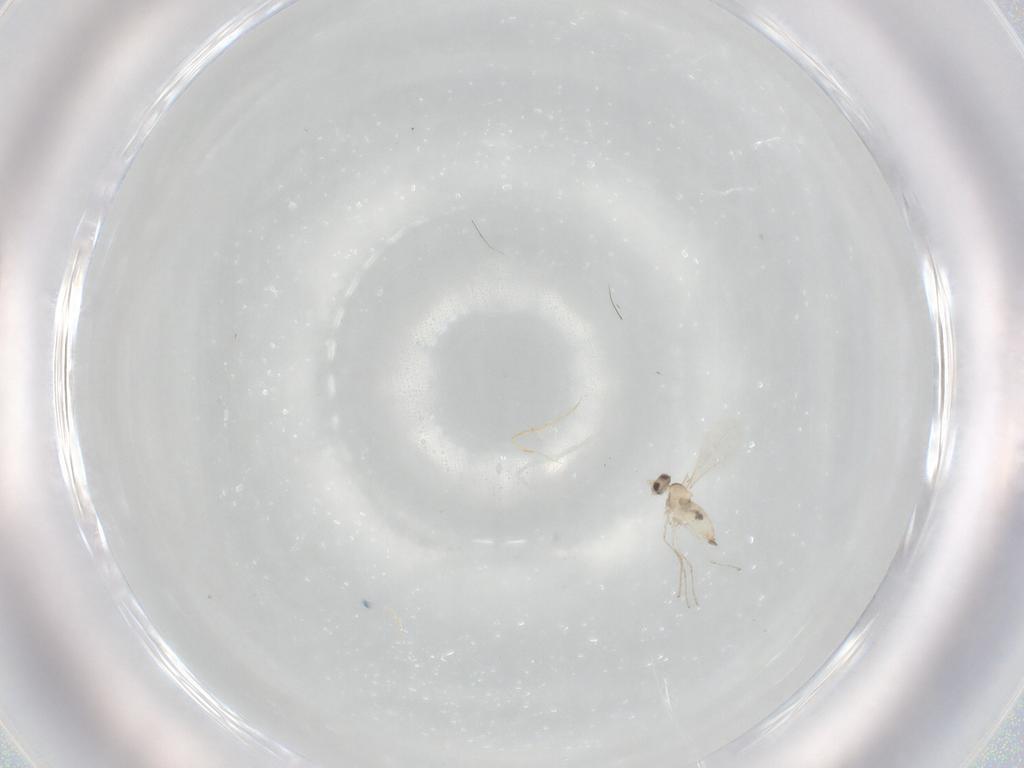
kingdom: Animalia
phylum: Arthropoda
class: Insecta
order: Diptera
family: Cecidomyiidae
